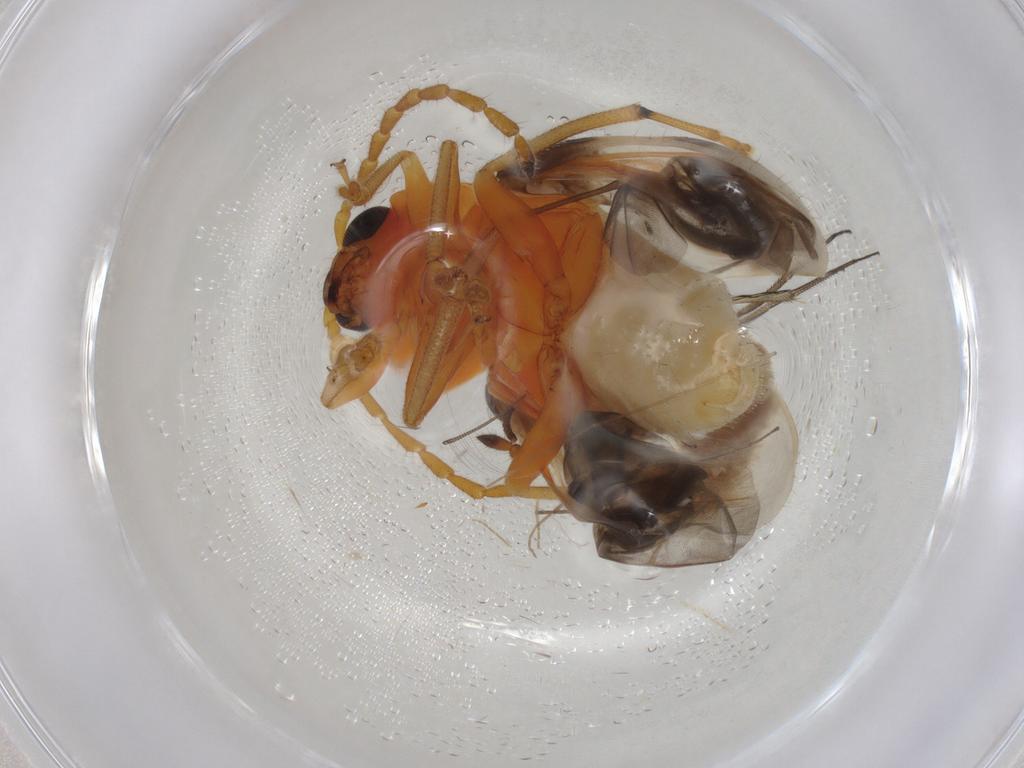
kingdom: Animalia
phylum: Arthropoda
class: Insecta
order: Coleoptera
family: Chrysomelidae
